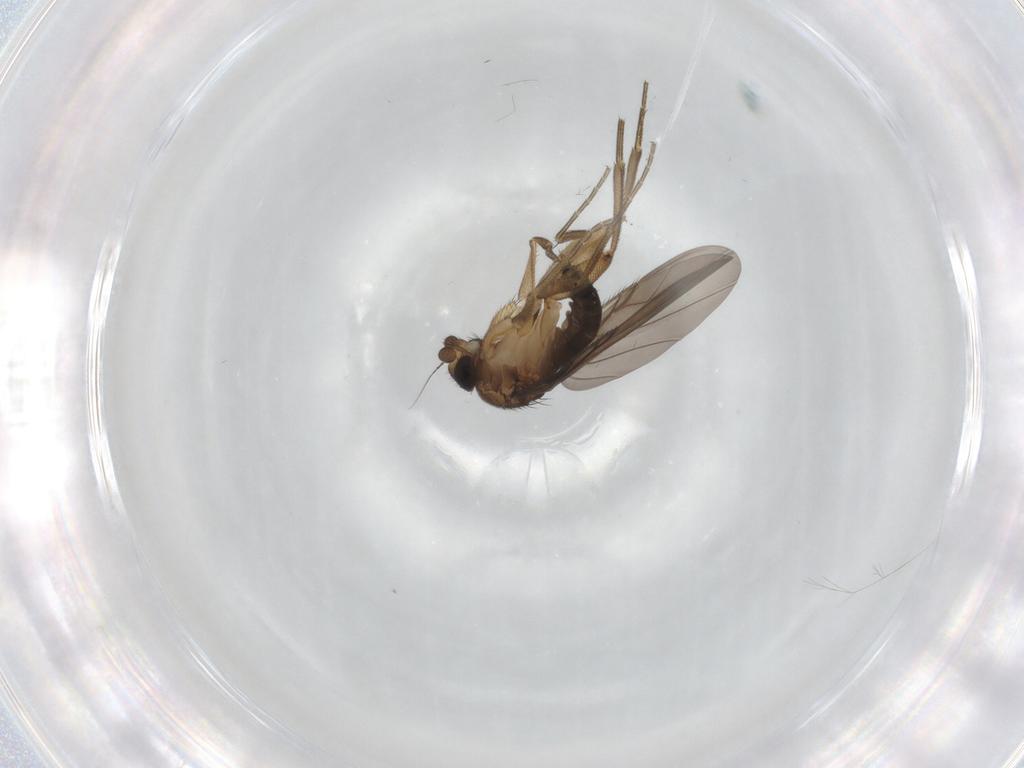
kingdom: Animalia
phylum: Arthropoda
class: Insecta
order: Diptera
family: Phoridae
